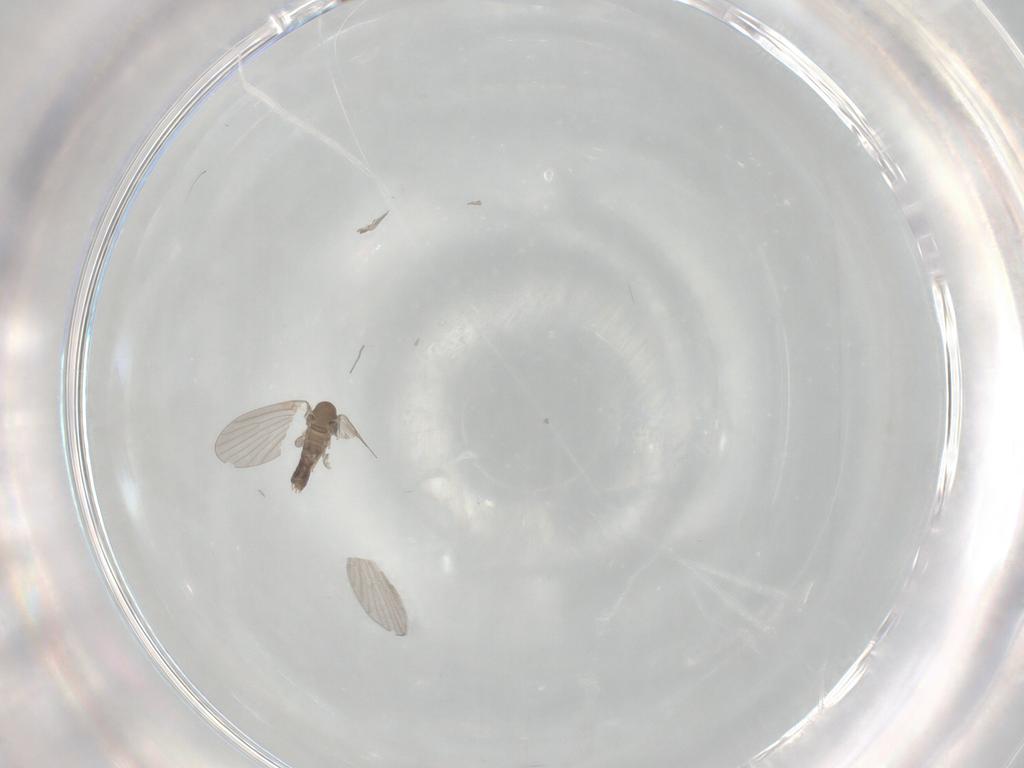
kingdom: Animalia
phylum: Arthropoda
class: Insecta
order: Diptera
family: Psychodidae
